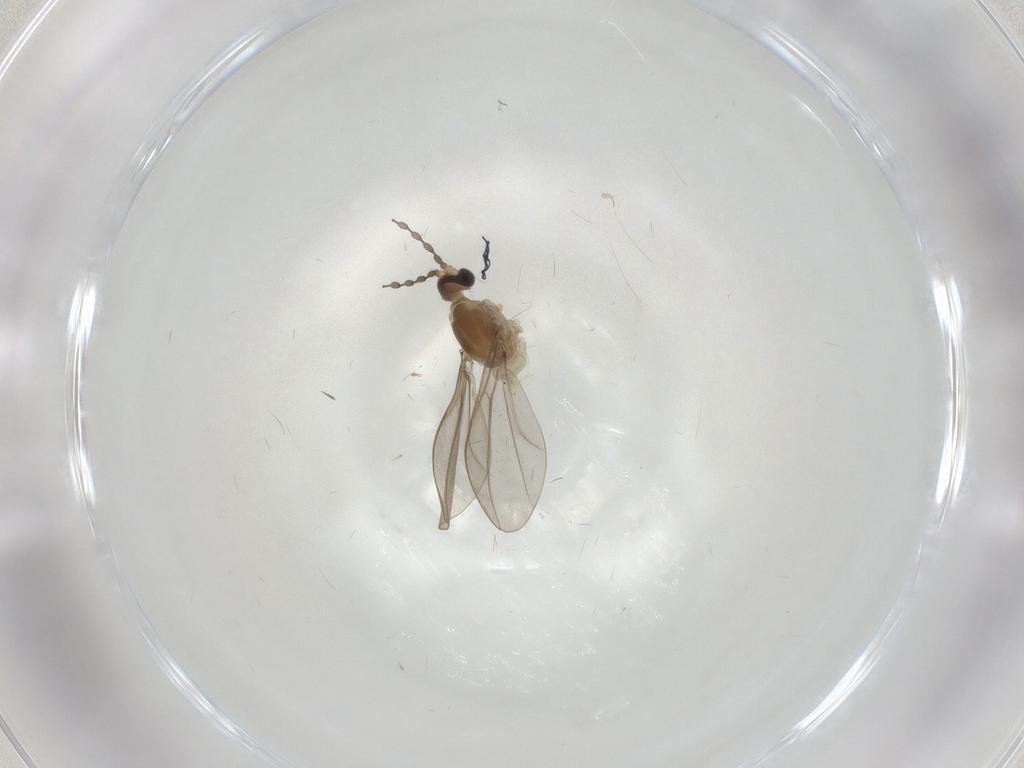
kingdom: Animalia
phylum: Arthropoda
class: Insecta
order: Diptera
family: Cecidomyiidae
